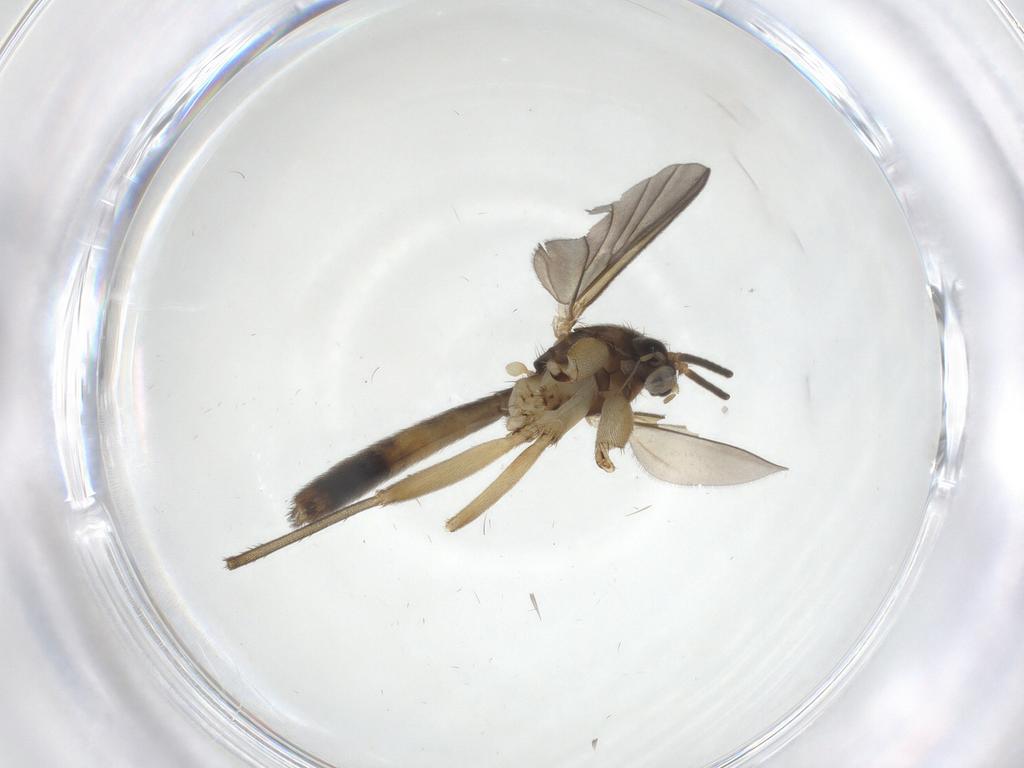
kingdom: Animalia
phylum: Arthropoda
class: Insecta
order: Diptera
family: Mycetophilidae
